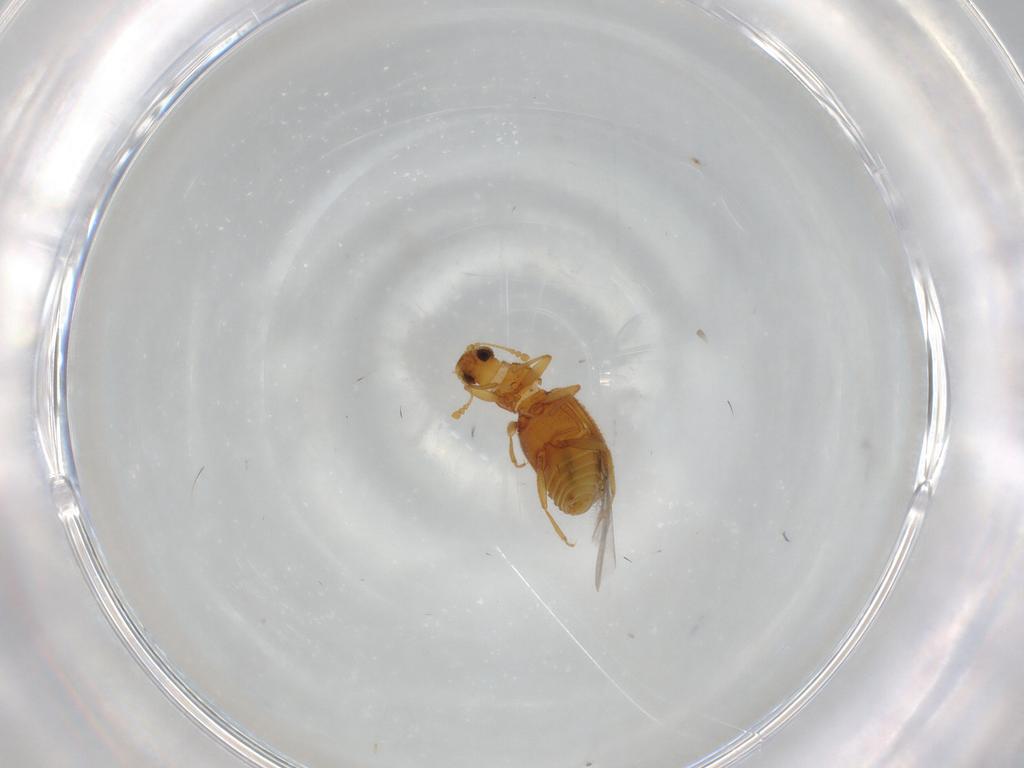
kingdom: Animalia
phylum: Arthropoda
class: Insecta
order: Coleoptera
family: Latridiidae
